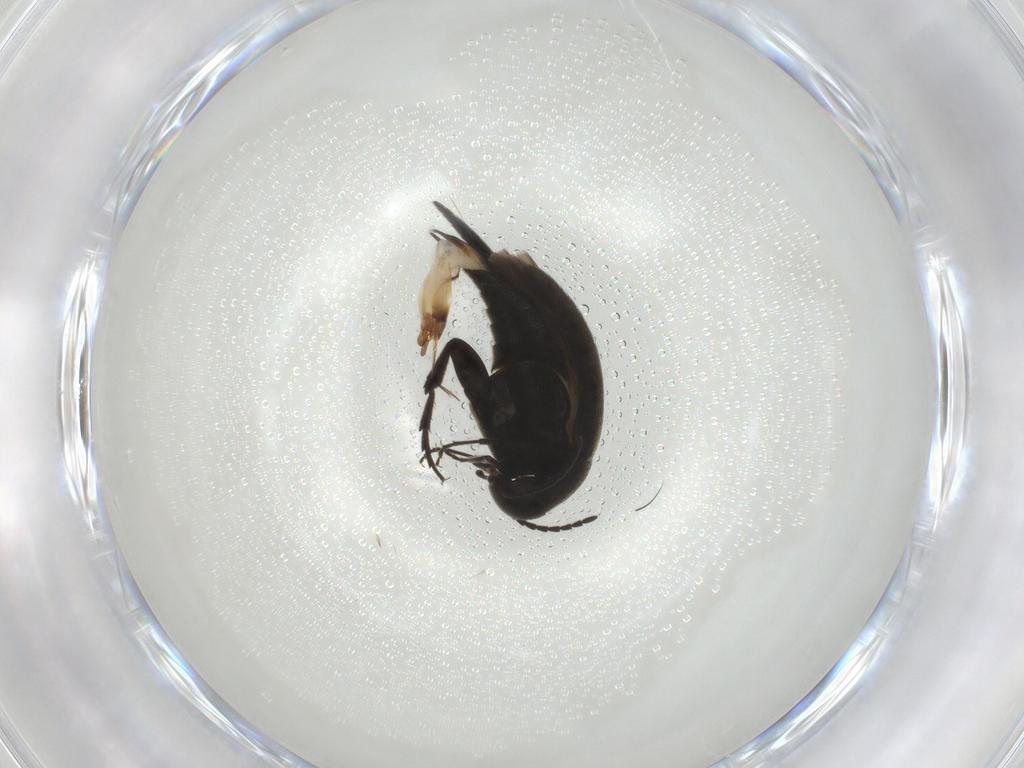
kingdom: Animalia
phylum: Arthropoda
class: Insecta
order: Coleoptera
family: Mordellidae
